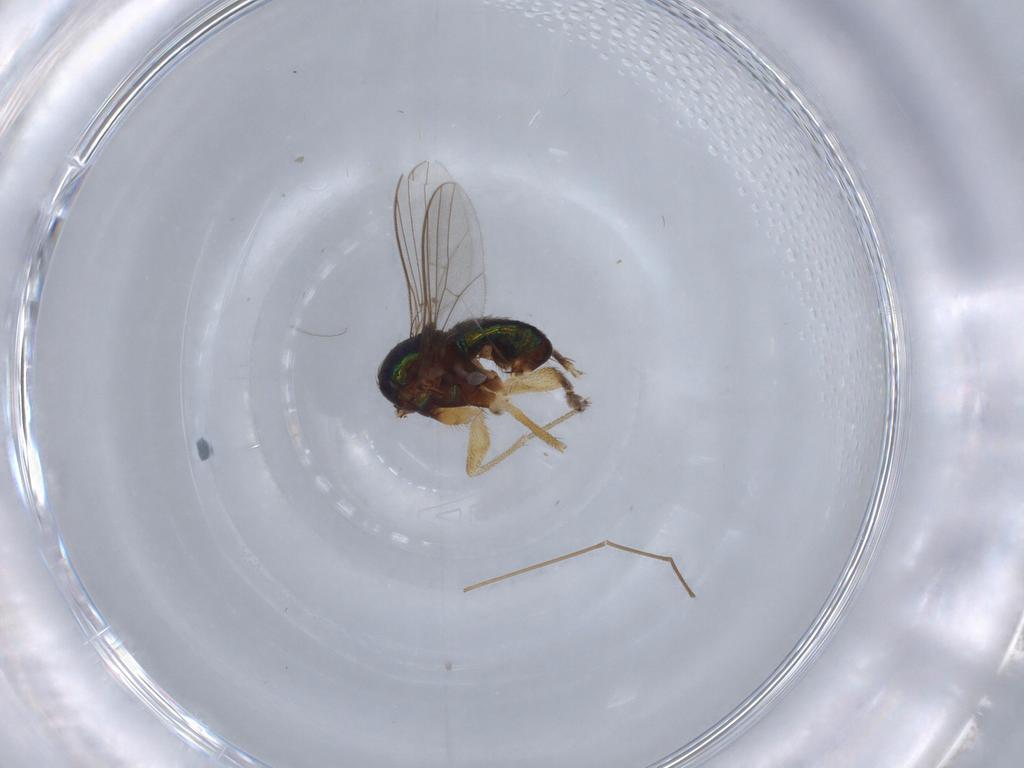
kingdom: Animalia
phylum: Arthropoda
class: Insecta
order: Diptera
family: Chironomidae
